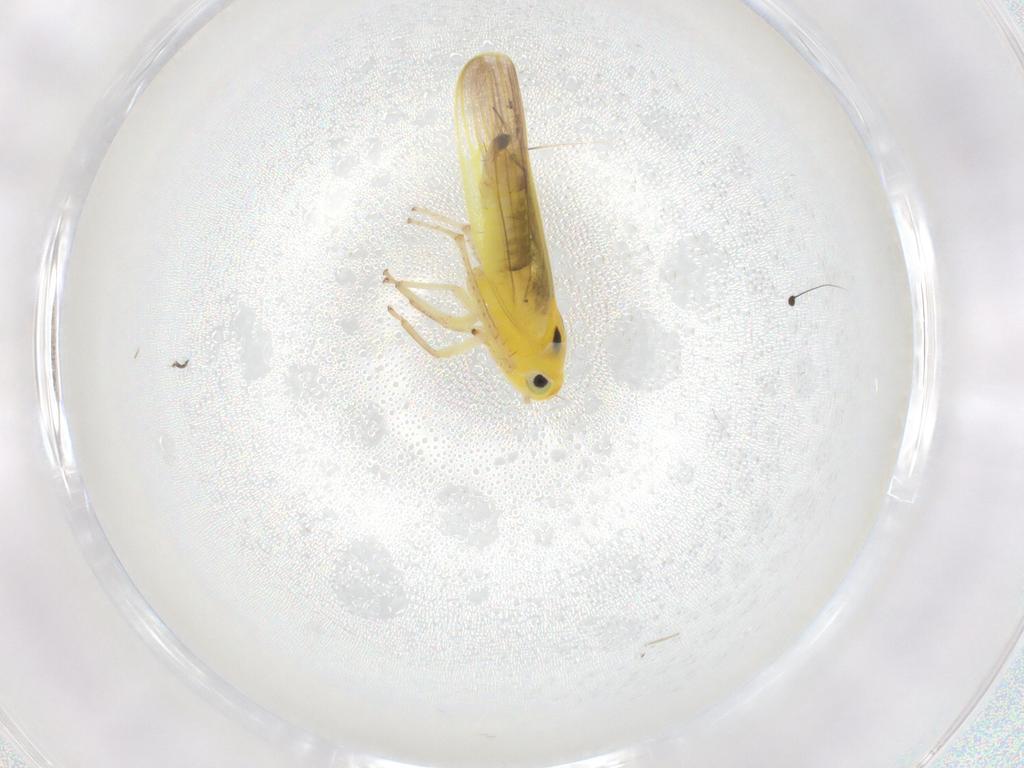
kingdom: Animalia
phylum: Arthropoda
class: Insecta
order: Hemiptera
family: Cicadellidae
